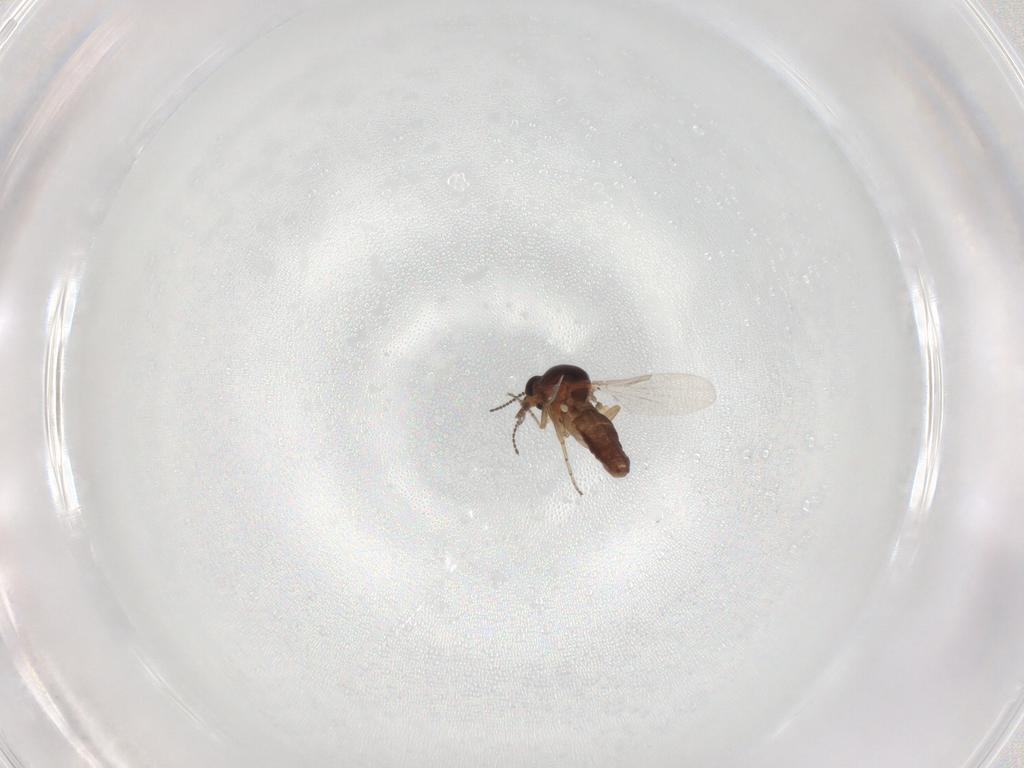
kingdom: Animalia
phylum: Arthropoda
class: Insecta
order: Diptera
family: Ceratopogonidae
